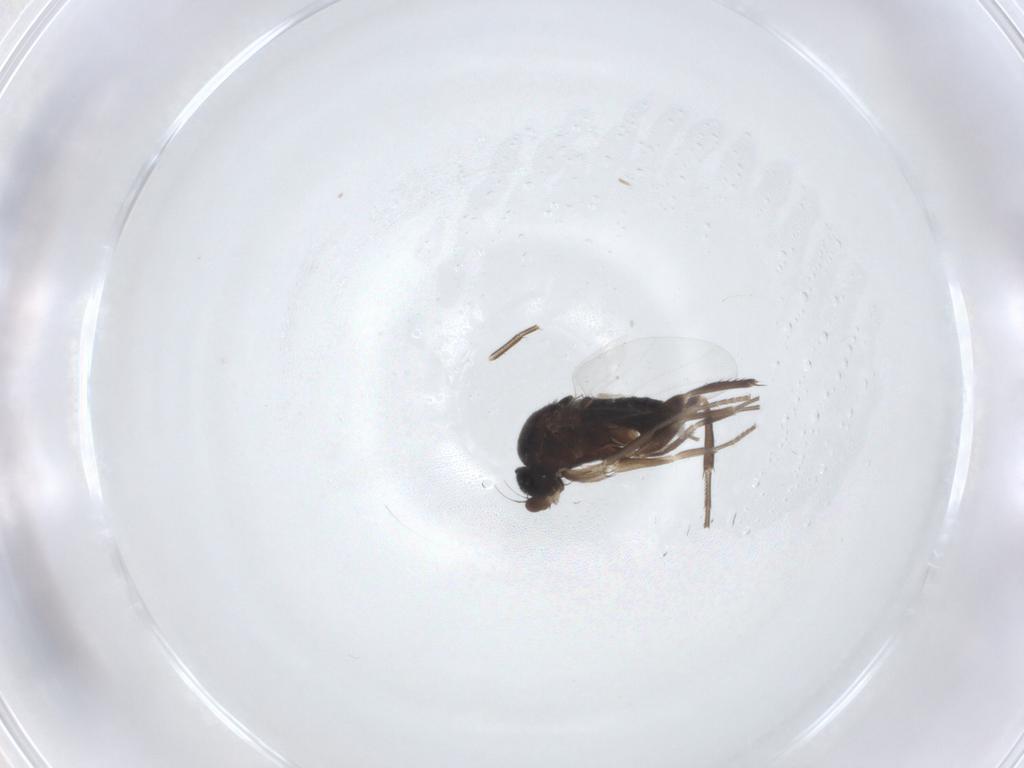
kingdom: Animalia
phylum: Arthropoda
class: Insecta
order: Diptera
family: Phoridae
